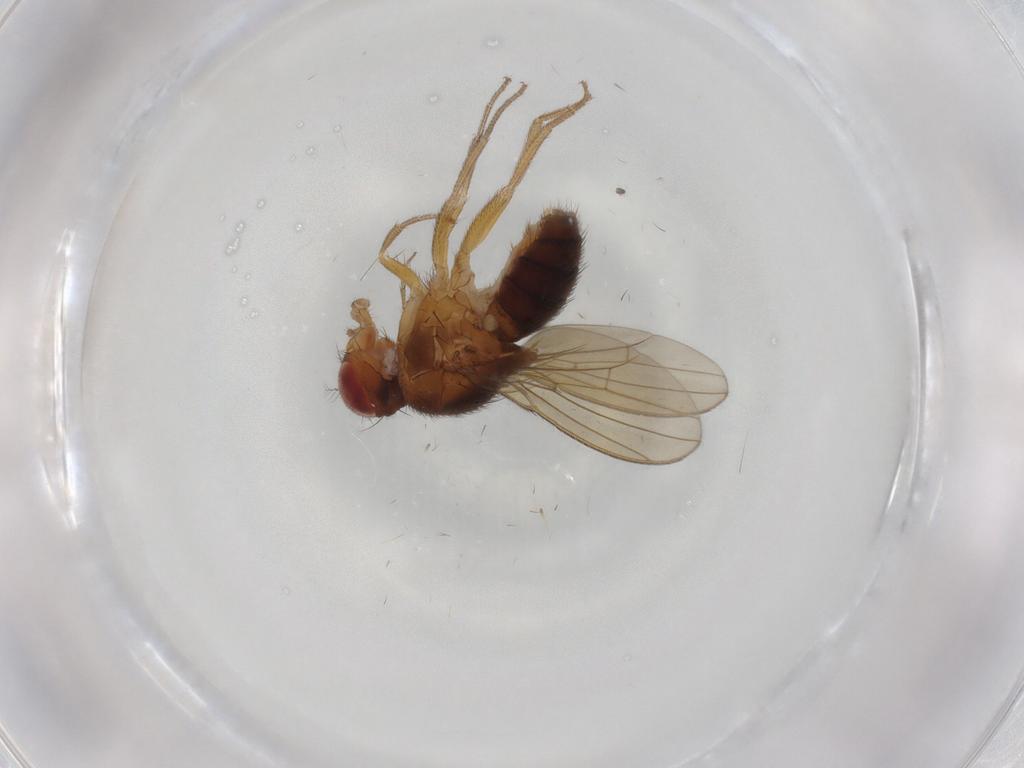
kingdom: Animalia
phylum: Arthropoda
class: Insecta
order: Diptera
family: Drosophilidae
